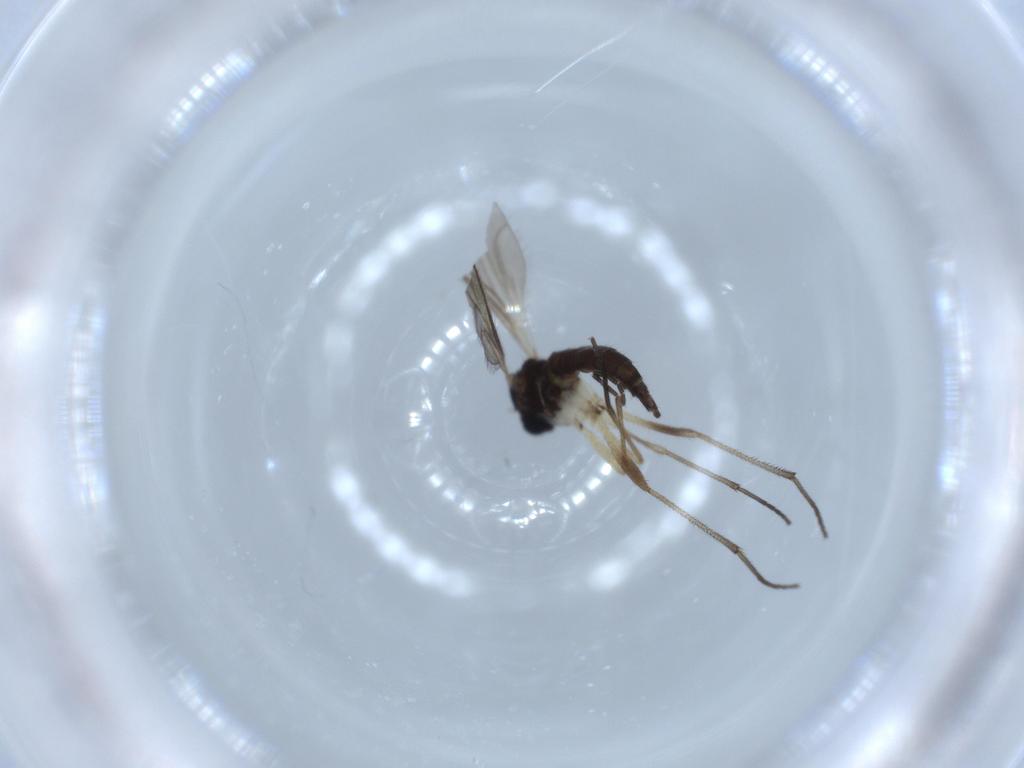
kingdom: Animalia
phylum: Arthropoda
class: Insecta
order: Diptera
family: Sciaridae
